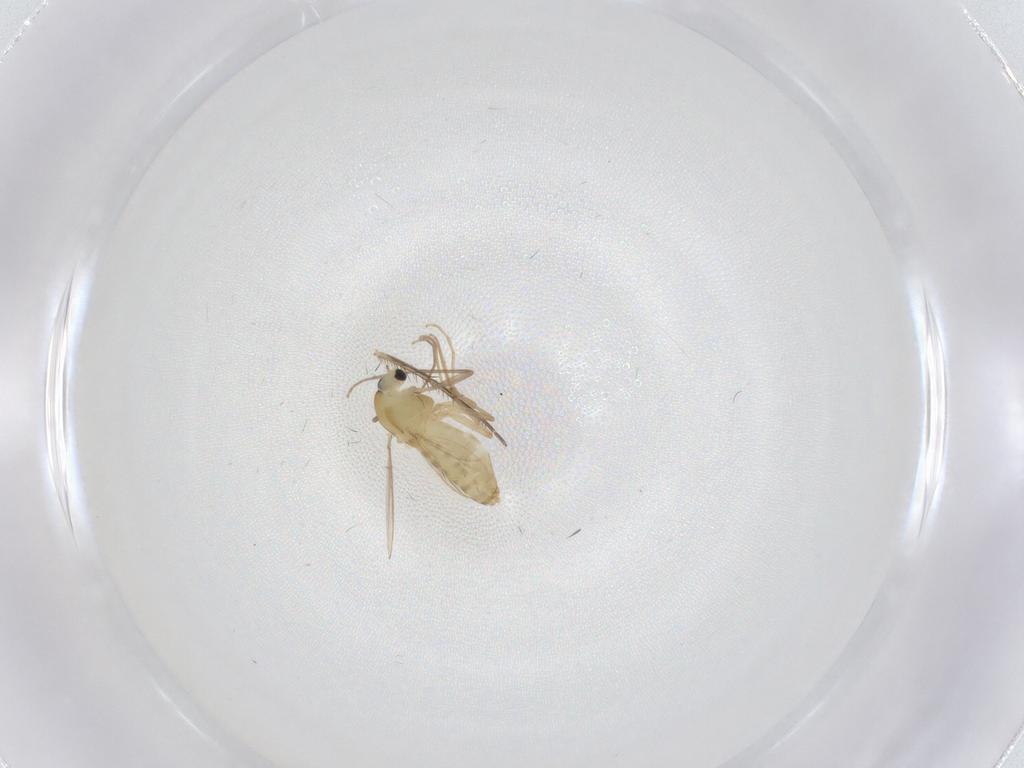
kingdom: Animalia
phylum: Arthropoda
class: Insecta
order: Diptera
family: Chironomidae
